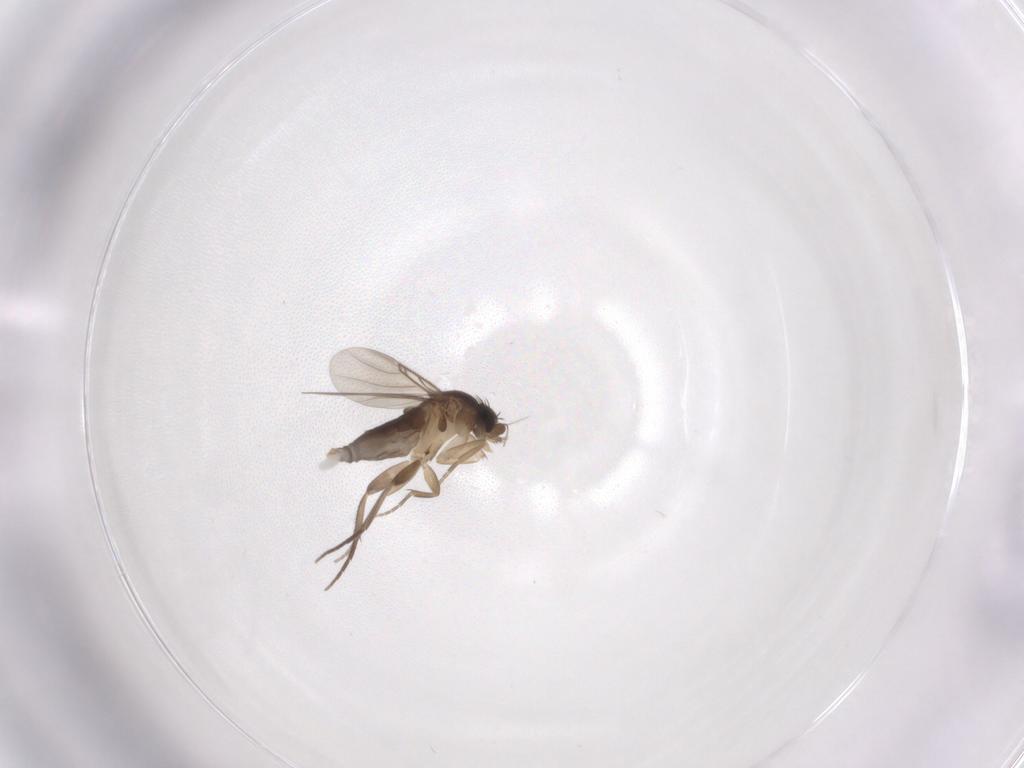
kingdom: Animalia
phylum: Arthropoda
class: Insecta
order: Diptera
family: Phoridae
